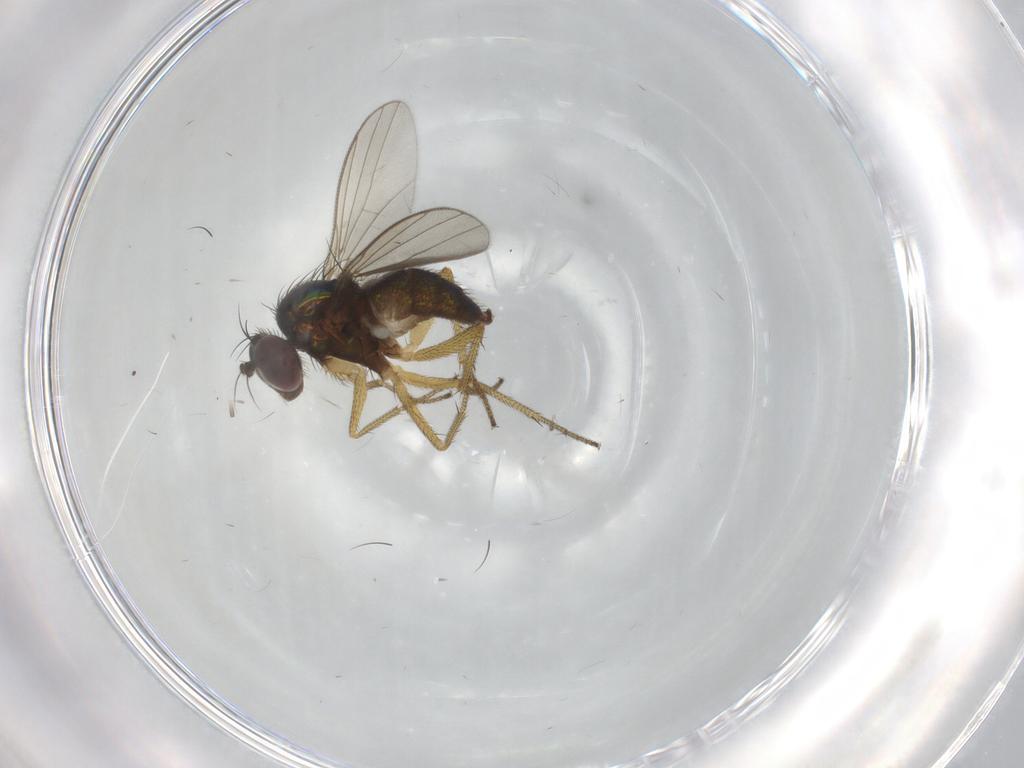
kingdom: Animalia
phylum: Arthropoda
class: Insecta
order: Diptera
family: Dolichopodidae
